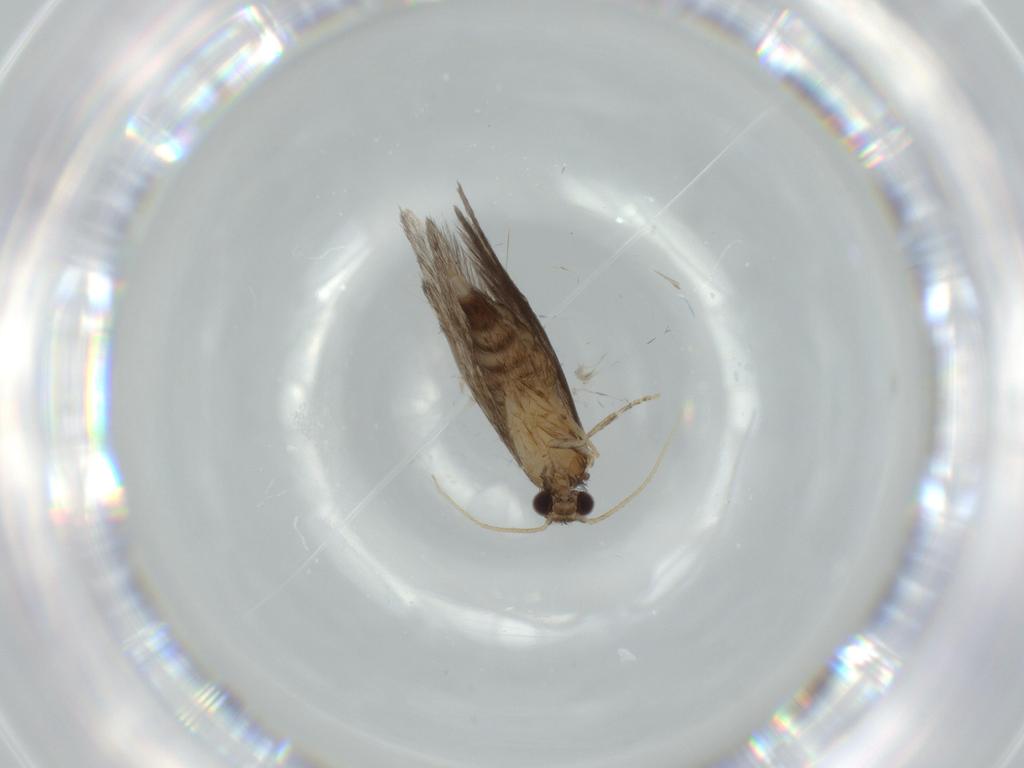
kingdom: Animalia
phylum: Arthropoda
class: Insecta
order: Trichoptera
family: Hydroptilidae
